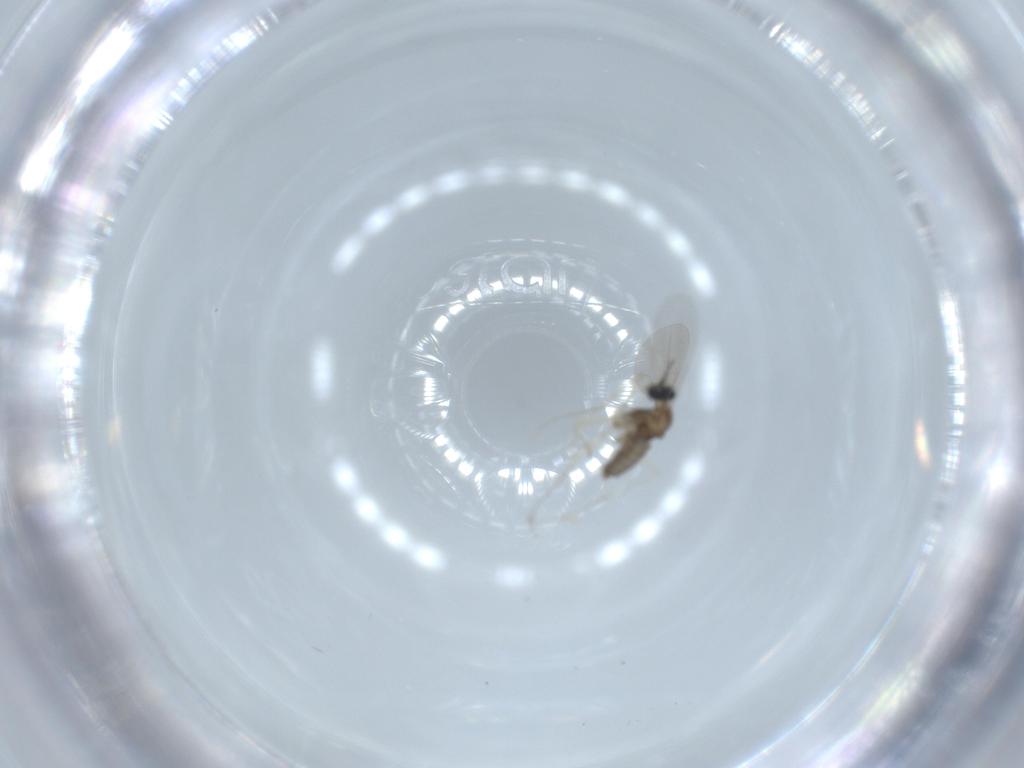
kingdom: Animalia
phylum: Arthropoda
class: Insecta
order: Diptera
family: Cecidomyiidae
